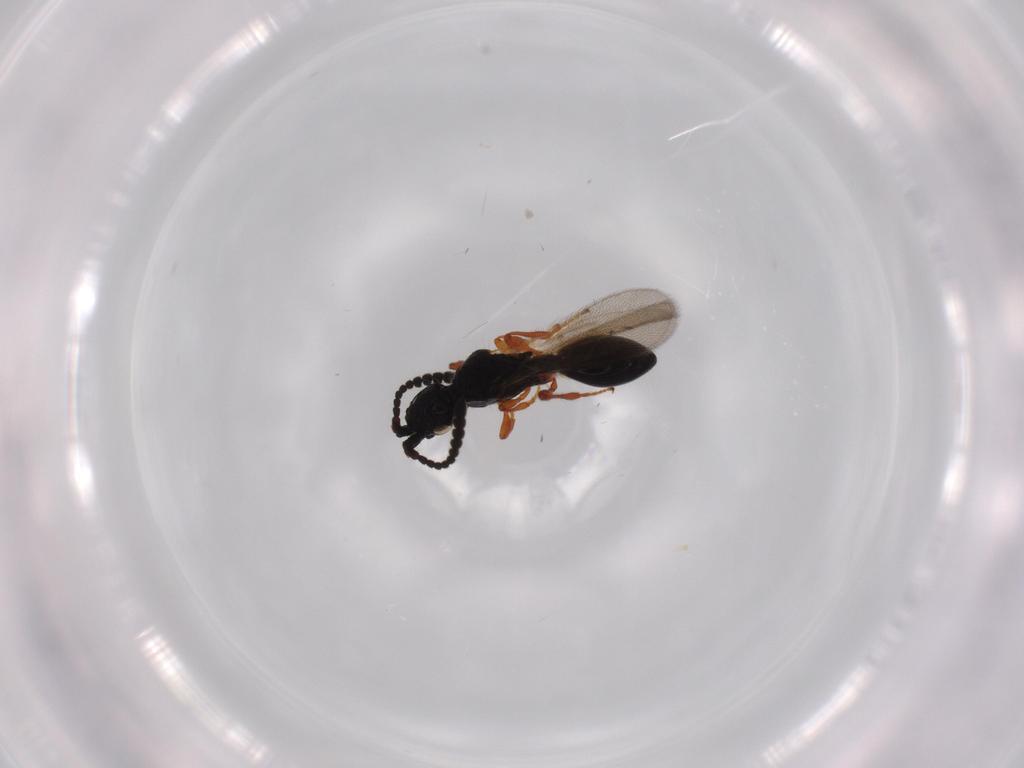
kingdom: Animalia
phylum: Arthropoda
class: Insecta
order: Hymenoptera
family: Diapriidae
